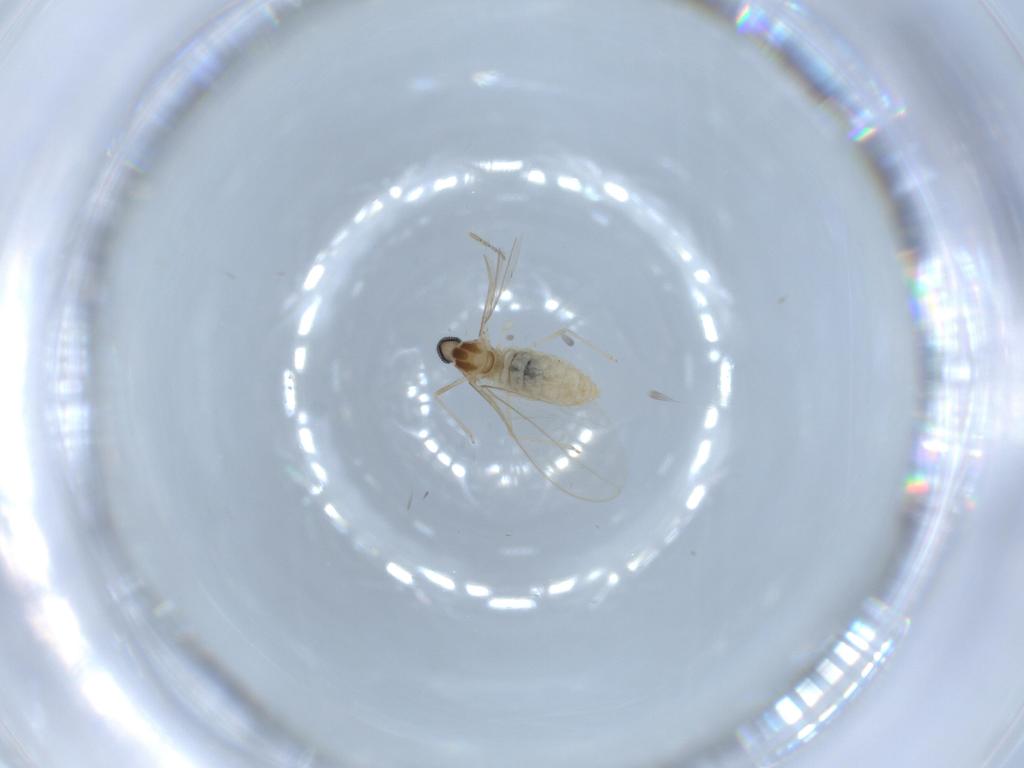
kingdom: Animalia
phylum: Arthropoda
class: Insecta
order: Diptera
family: Cecidomyiidae
